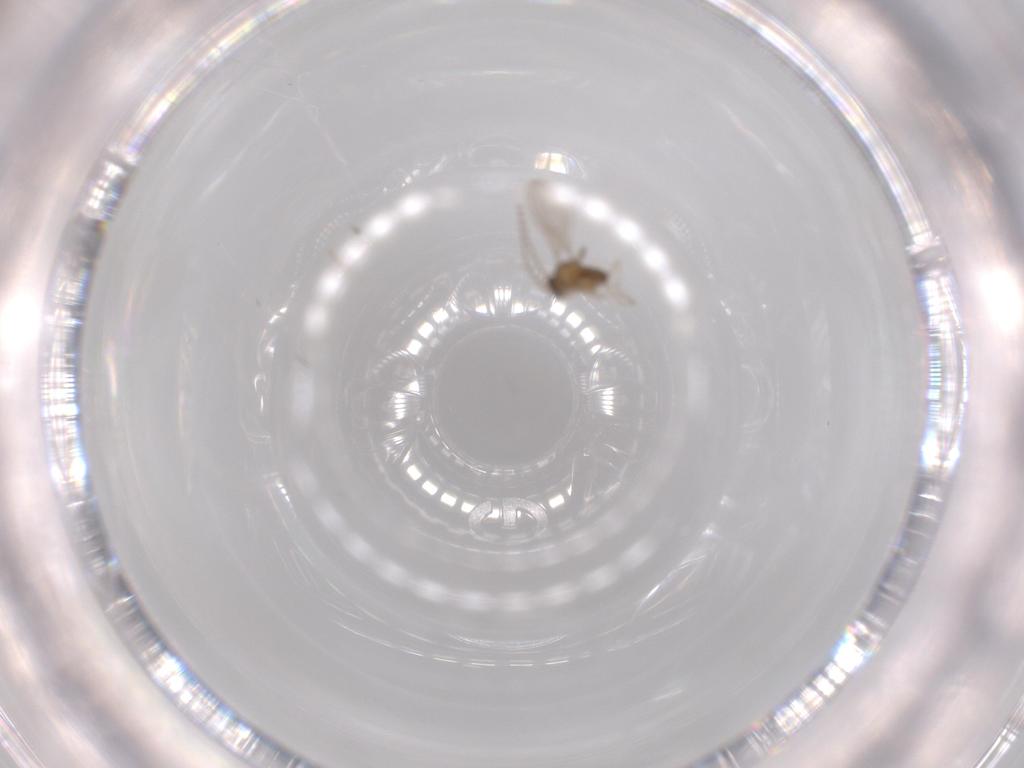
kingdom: Animalia
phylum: Arthropoda
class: Insecta
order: Diptera
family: Cecidomyiidae
